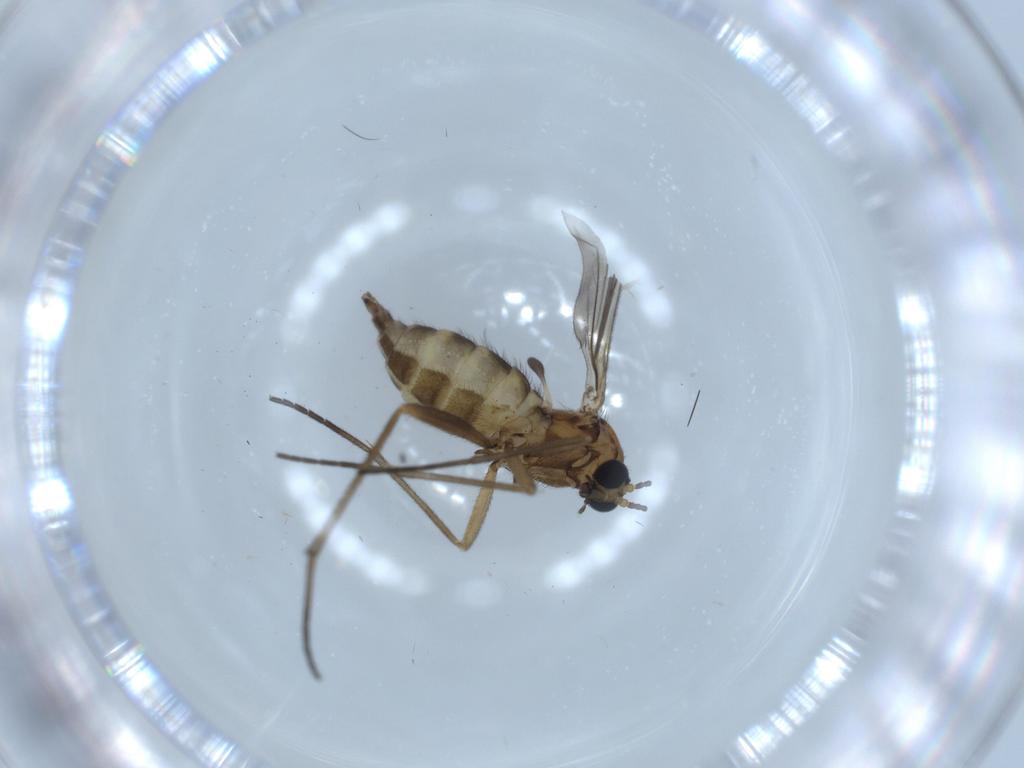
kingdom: Animalia
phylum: Arthropoda
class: Insecta
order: Diptera
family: Sciaridae
